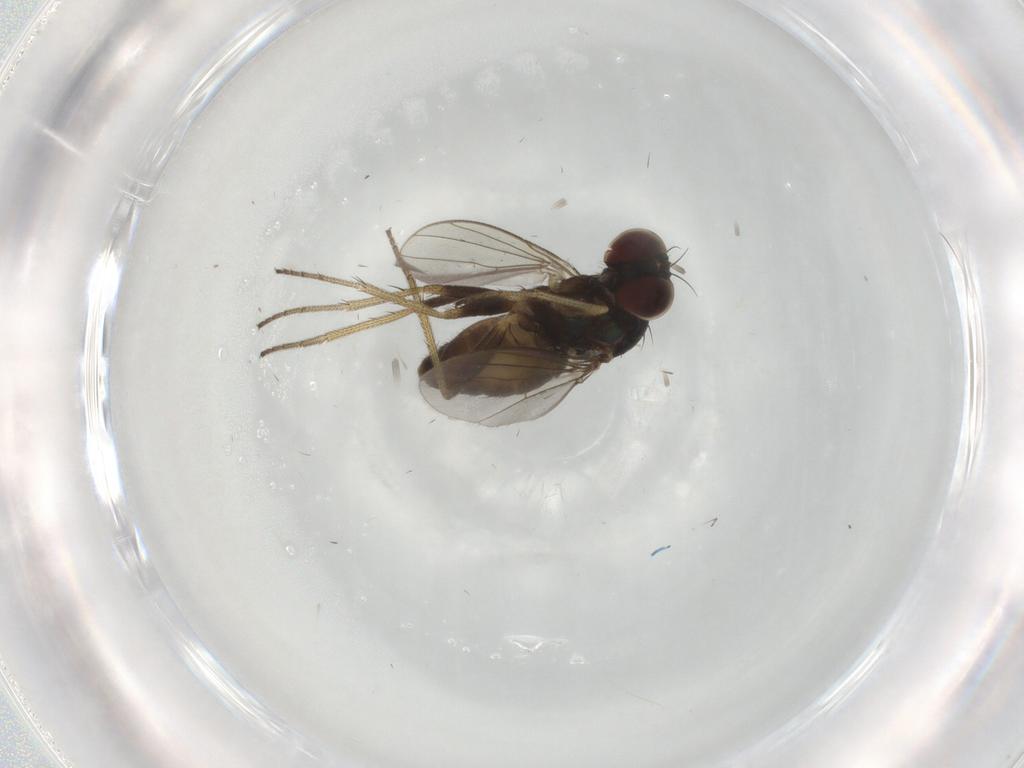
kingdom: Animalia
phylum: Arthropoda
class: Insecta
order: Diptera
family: Dolichopodidae
